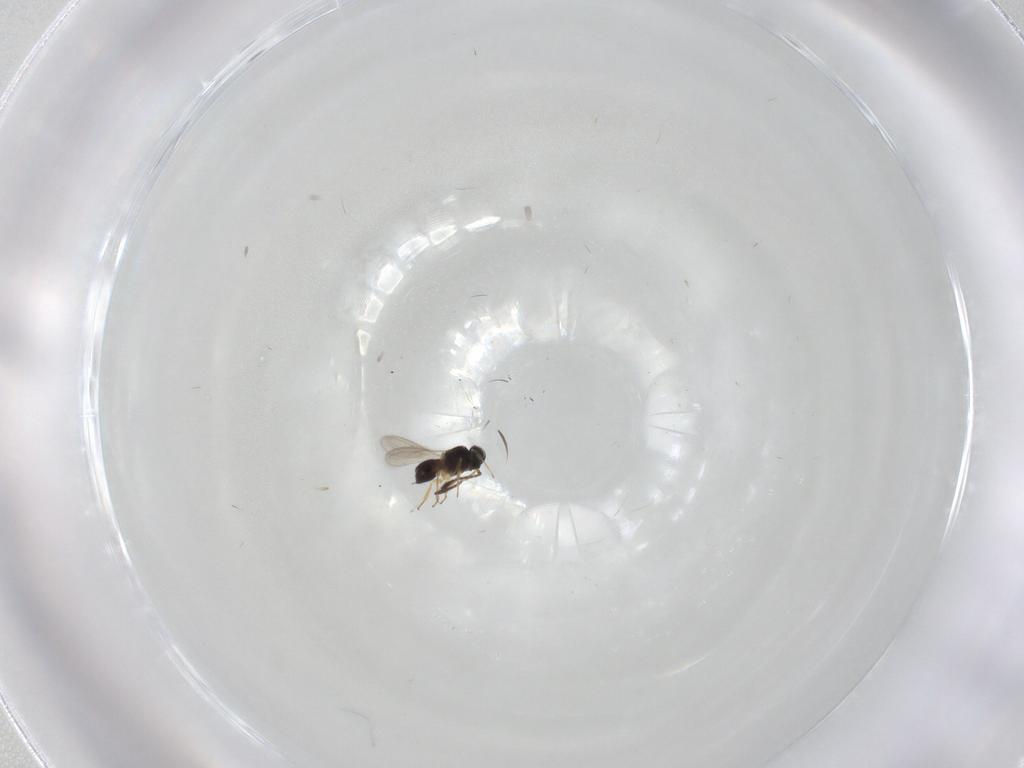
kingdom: Animalia
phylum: Arthropoda
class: Insecta
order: Hymenoptera
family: Scelionidae
